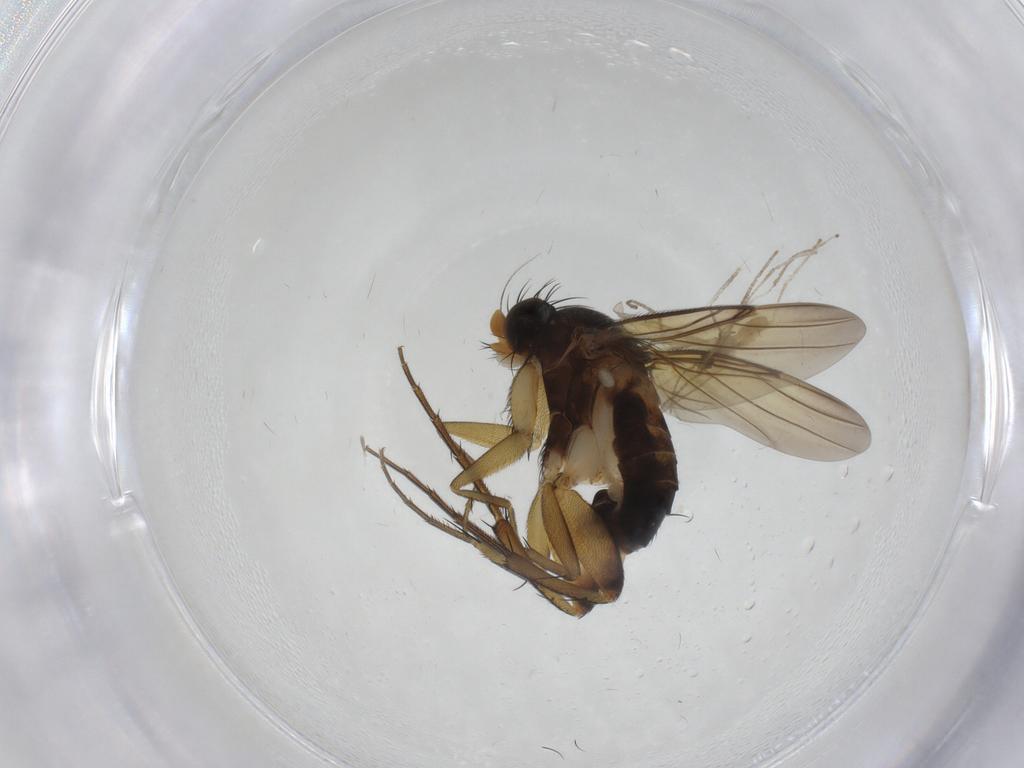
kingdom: Animalia
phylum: Arthropoda
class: Insecta
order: Diptera
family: Phoridae
